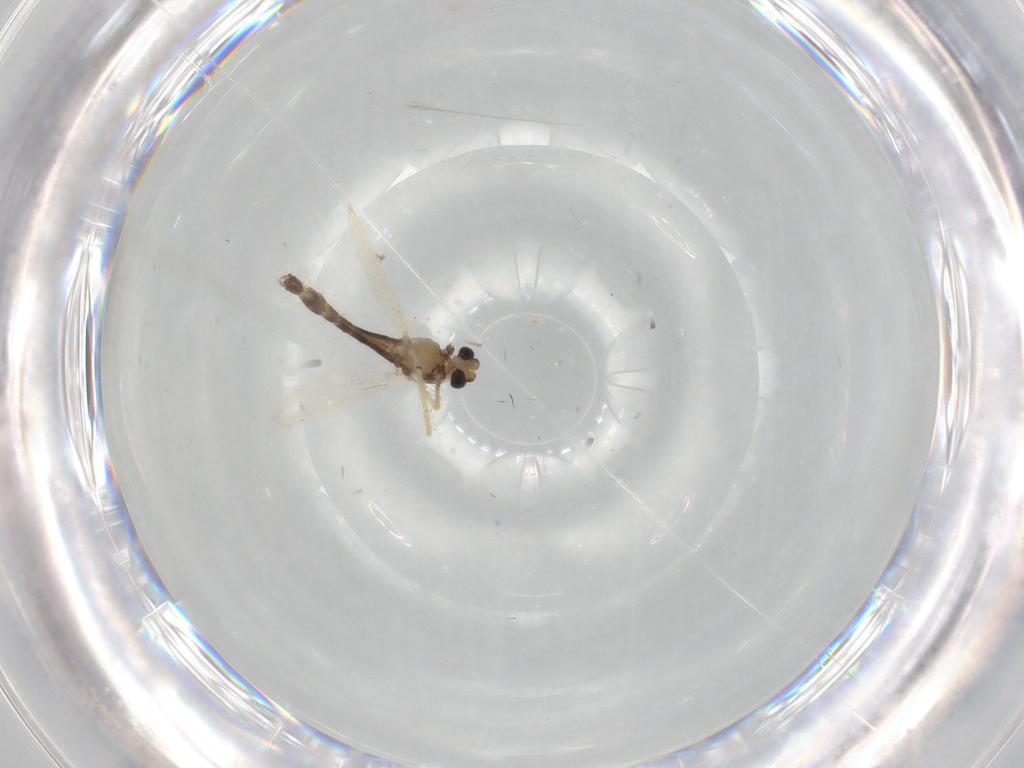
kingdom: Animalia
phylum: Arthropoda
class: Insecta
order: Diptera
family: Chironomidae
